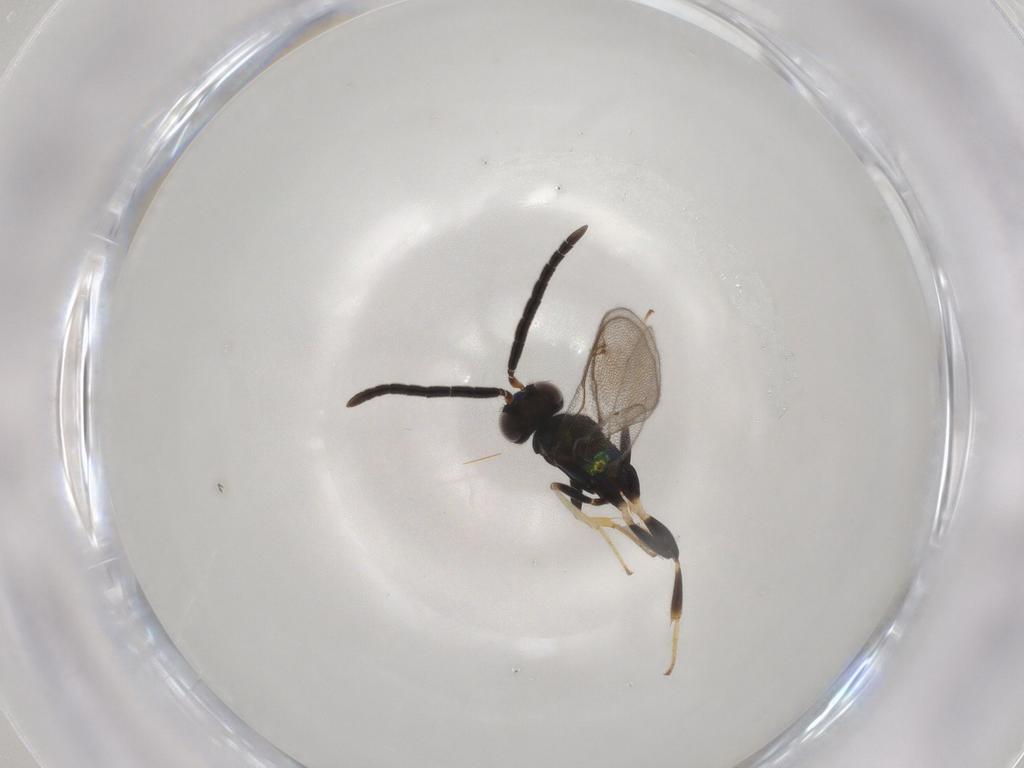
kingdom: Animalia
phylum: Arthropoda
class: Insecta
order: Hymenoptera
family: Eupelmidae
